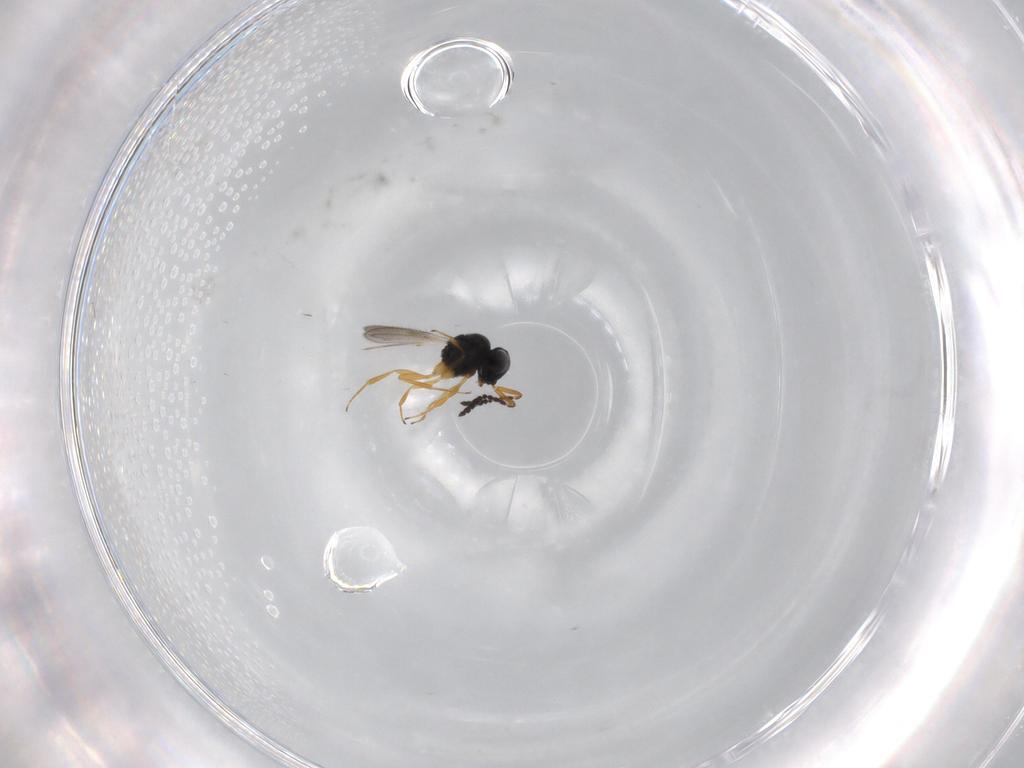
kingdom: Animalia
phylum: Arthropoda
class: Insecta
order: Hymenoptera
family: Scelionidae
